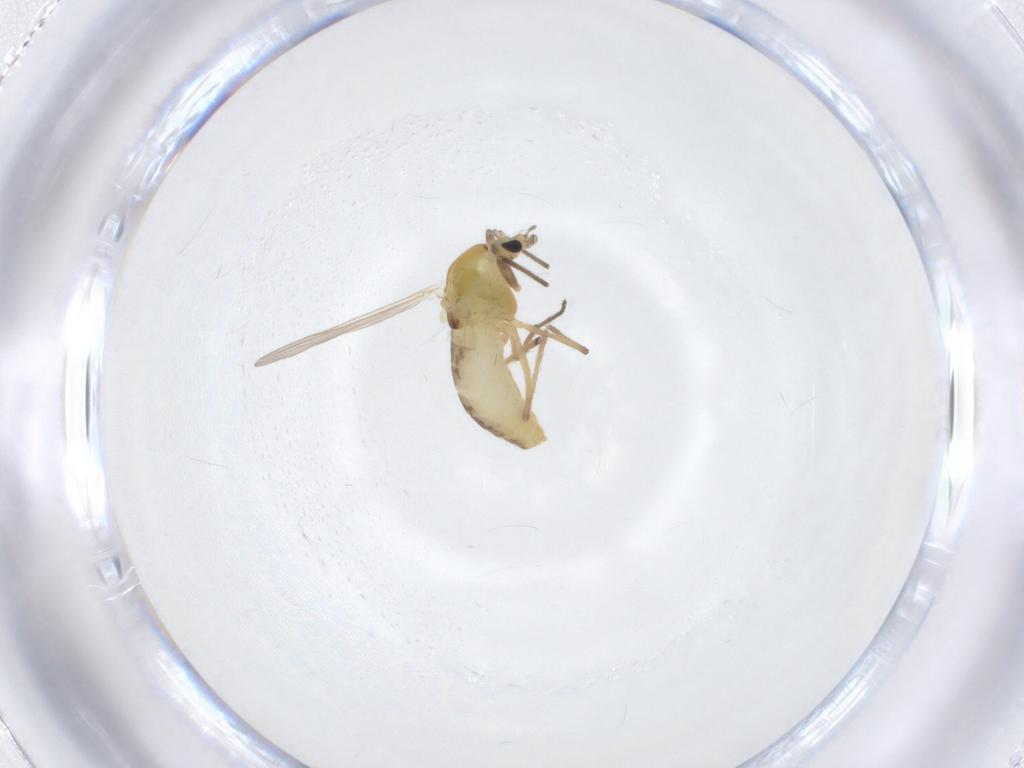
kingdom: Animalia
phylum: Arthropoda
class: Insecta
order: Diptera
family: Chironomidae
